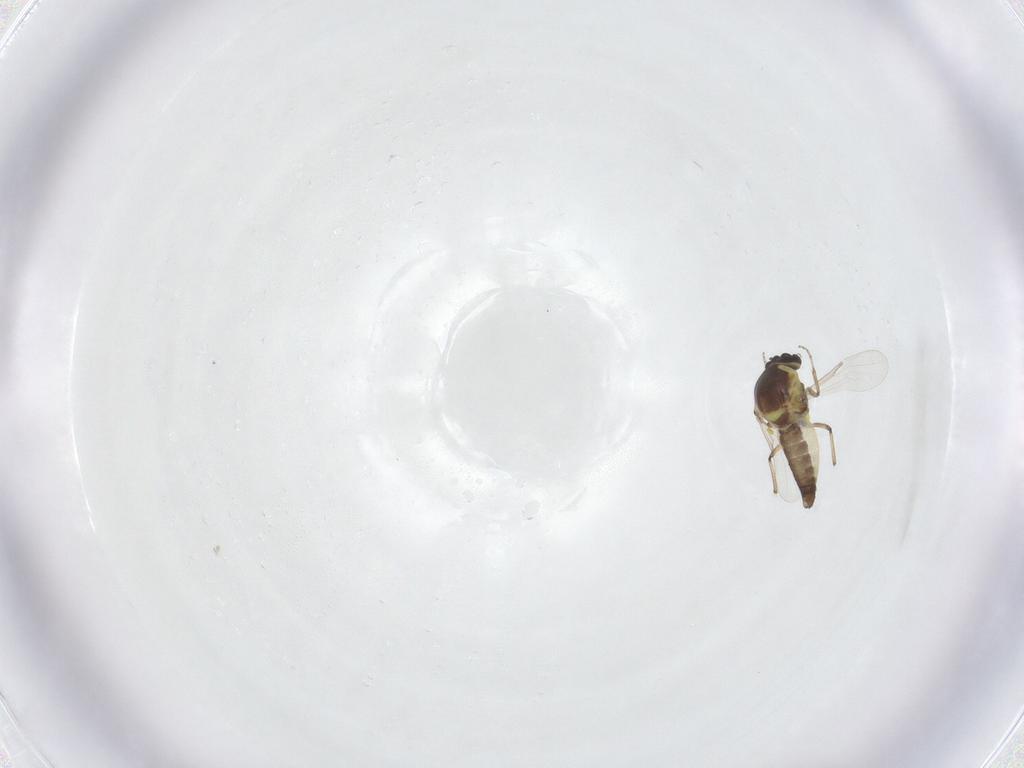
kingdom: Animalia
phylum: Arthropoda
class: Insecta
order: Diptera
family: Ceratopogonidae
